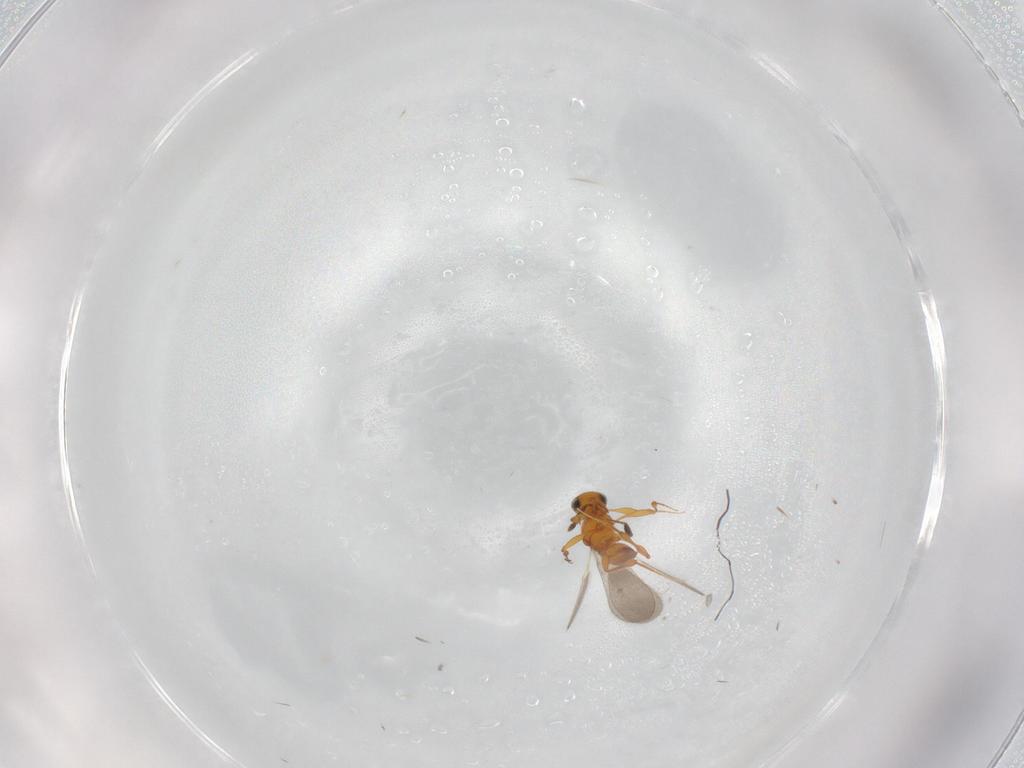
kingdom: Animalia
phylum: Arthropoda
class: Insecta
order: Hymenoptera
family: Platygastridae
